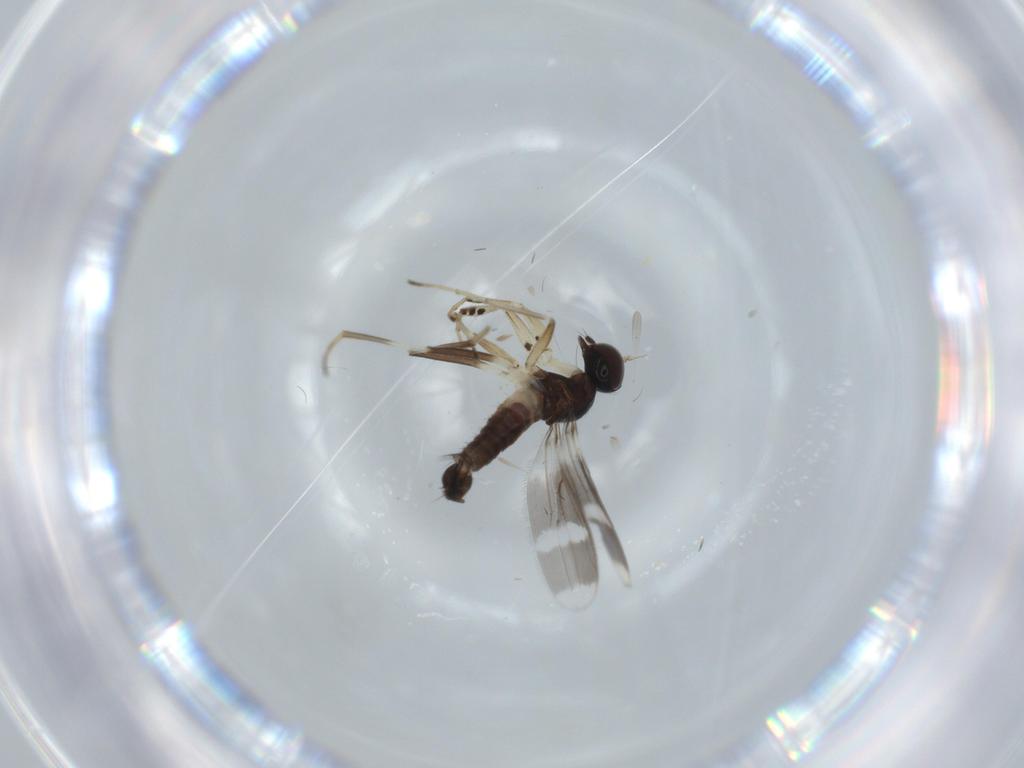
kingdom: Animalia
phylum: Arthropoda
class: Insecta
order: Diptera
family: Hybotidae
